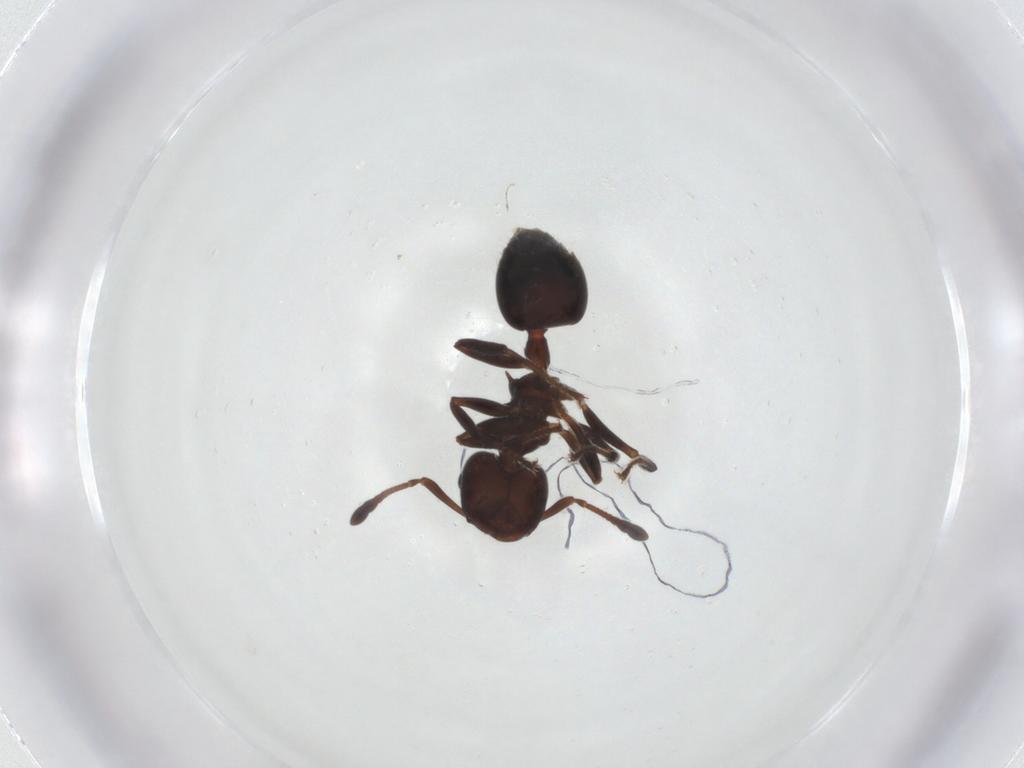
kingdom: Animalia
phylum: Arthropoda
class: Insecta
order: Hymenoptera
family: Formicidae
